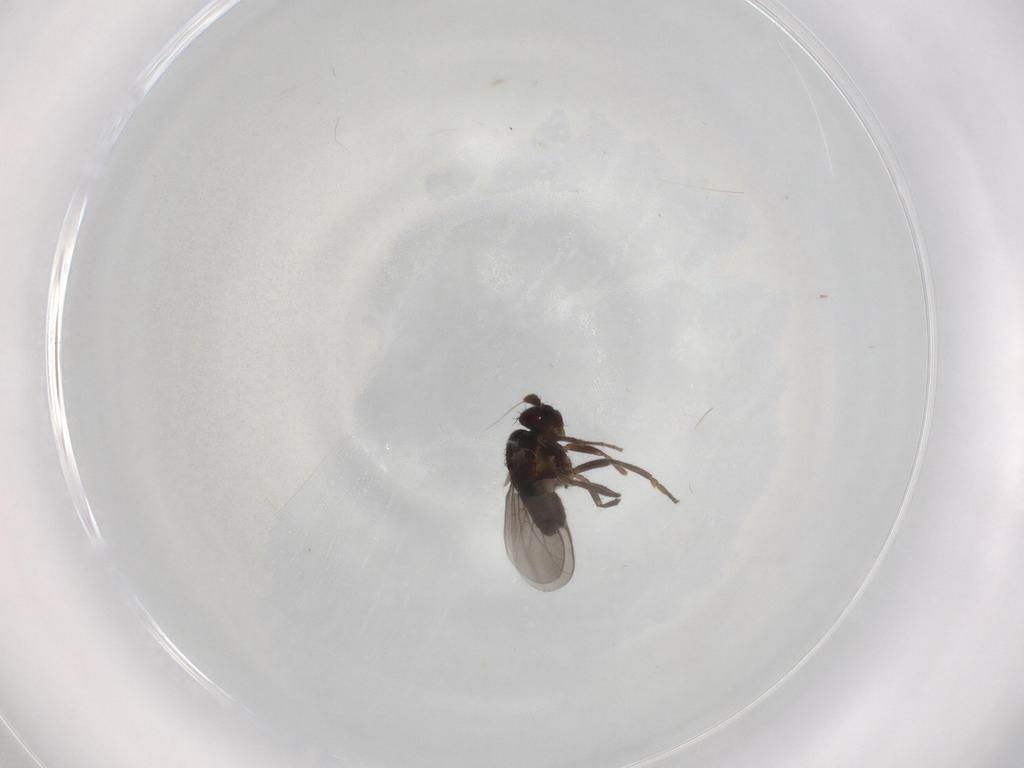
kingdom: Animalia
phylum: Arthropoda
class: Insecta
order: Diptera
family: Sphaeroceridae
